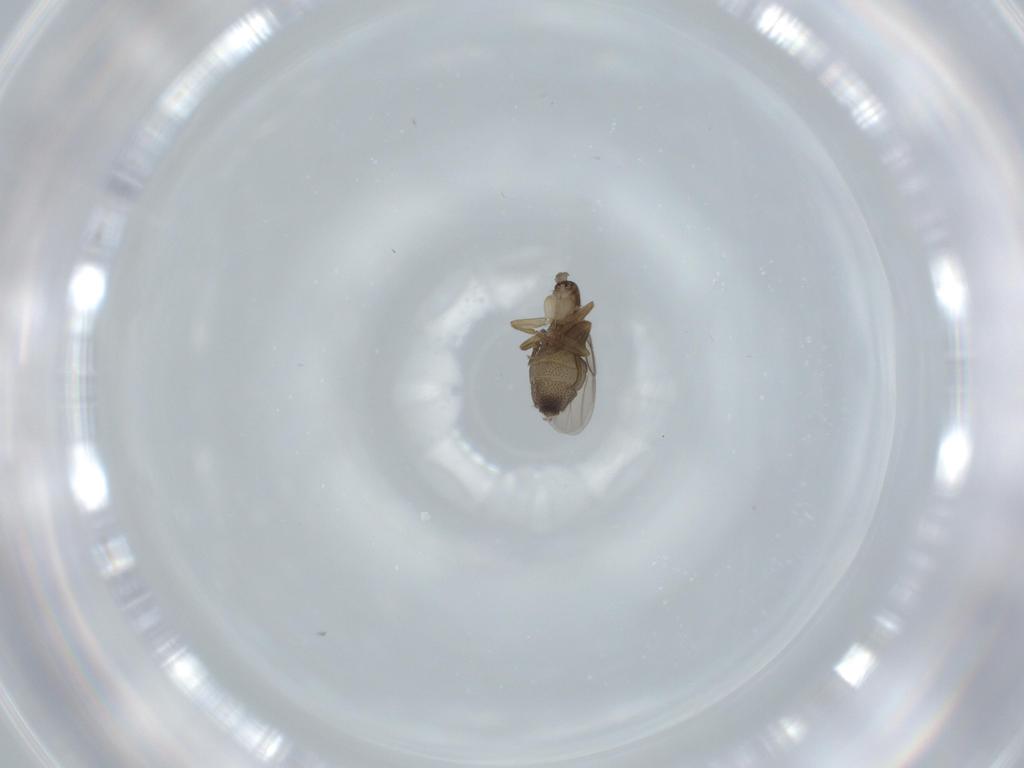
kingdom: Animalia
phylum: Arthropoda
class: Insecta
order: Diptera
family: Phoridae
